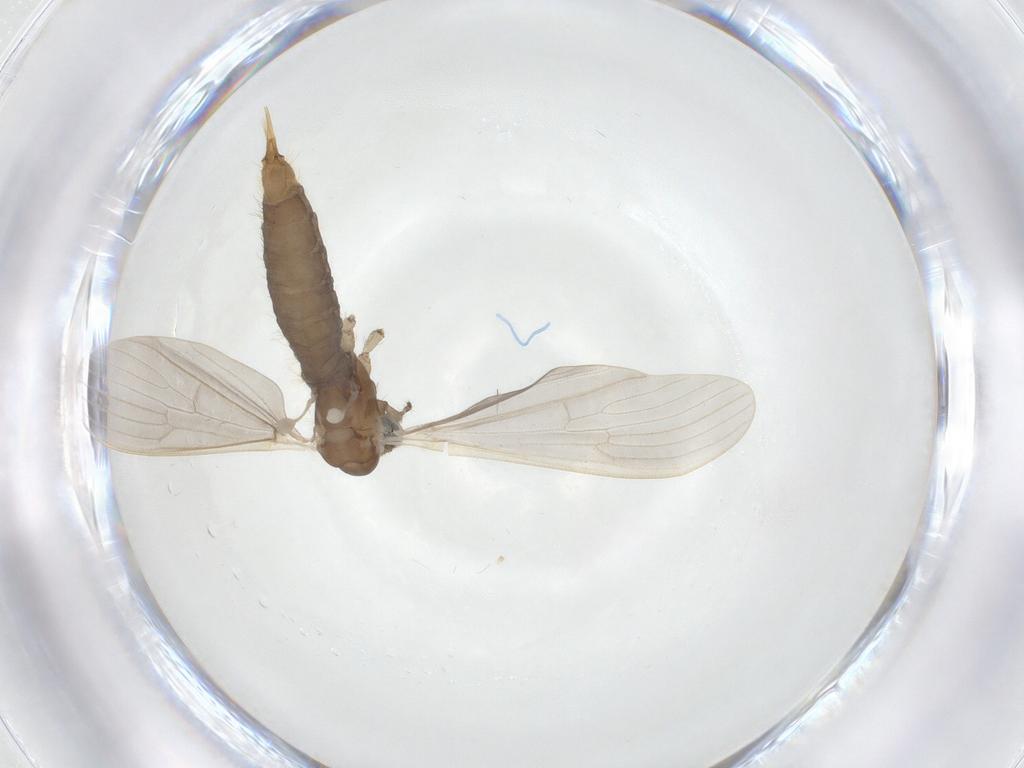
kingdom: Animalia
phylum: Arthropoda
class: Insecta
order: Diptera
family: Limoniidae
